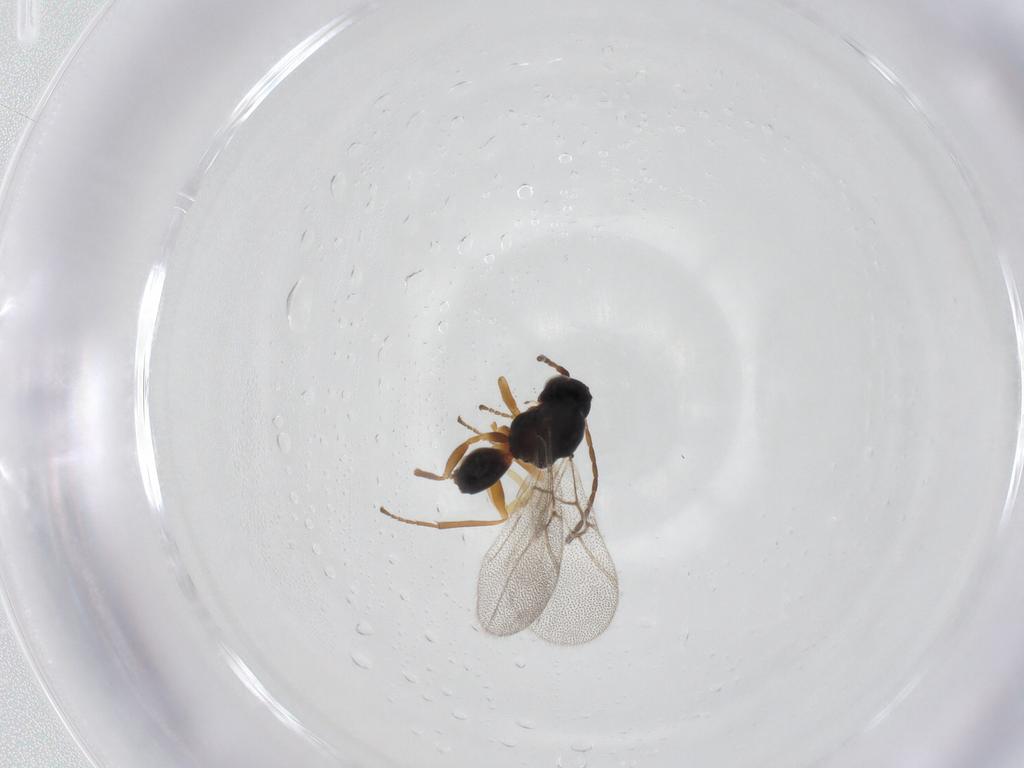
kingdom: Animalia
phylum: Arthropoda
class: Insecta
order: Hymenoptera
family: Cynipidae
